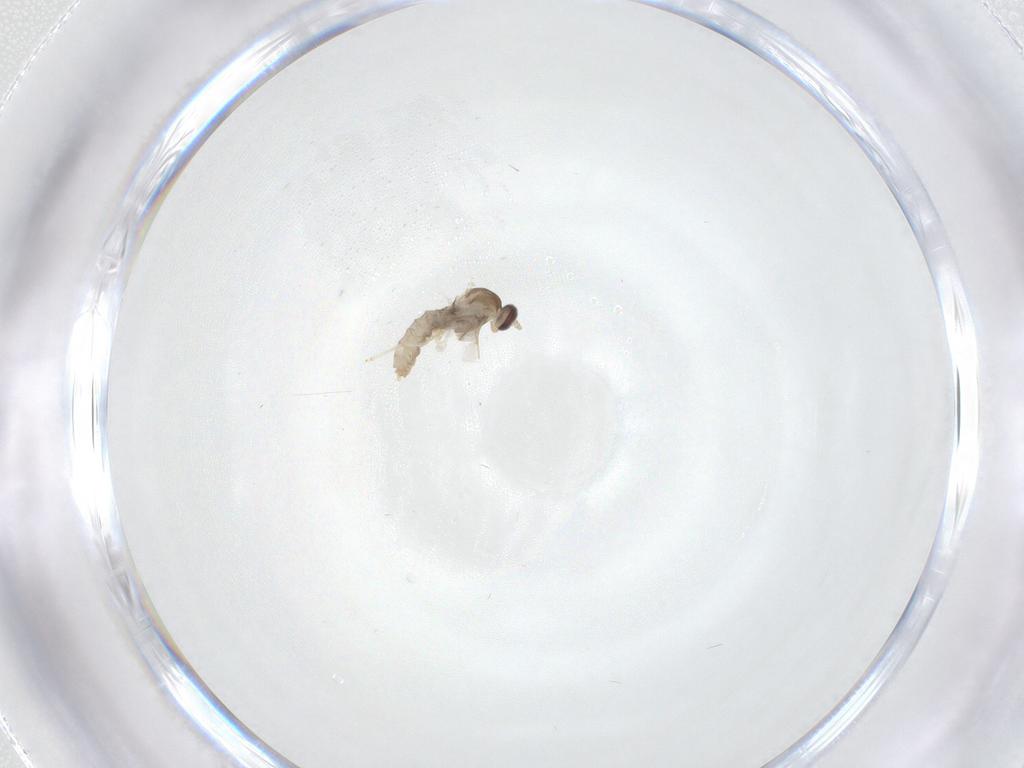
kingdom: Animalia
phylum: Arthropoda
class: Insecta
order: Diptera
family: Cecidomyiidae
